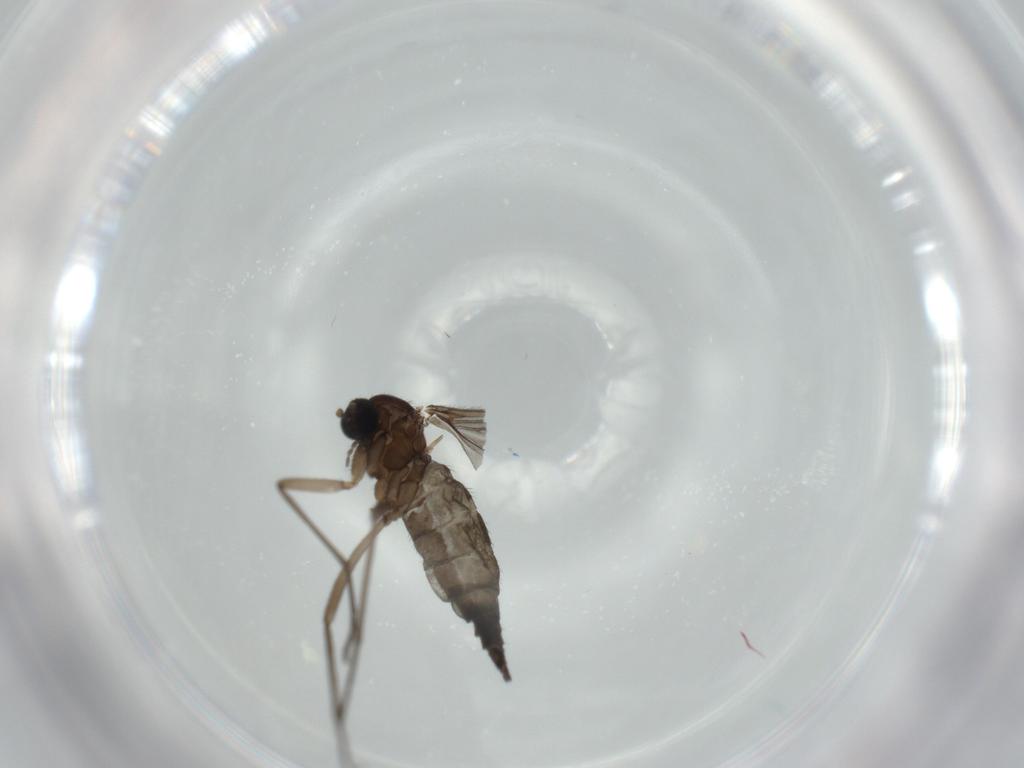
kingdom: Animalia
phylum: Arthropoda
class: Insecta
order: Diptera
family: Sciaridae
